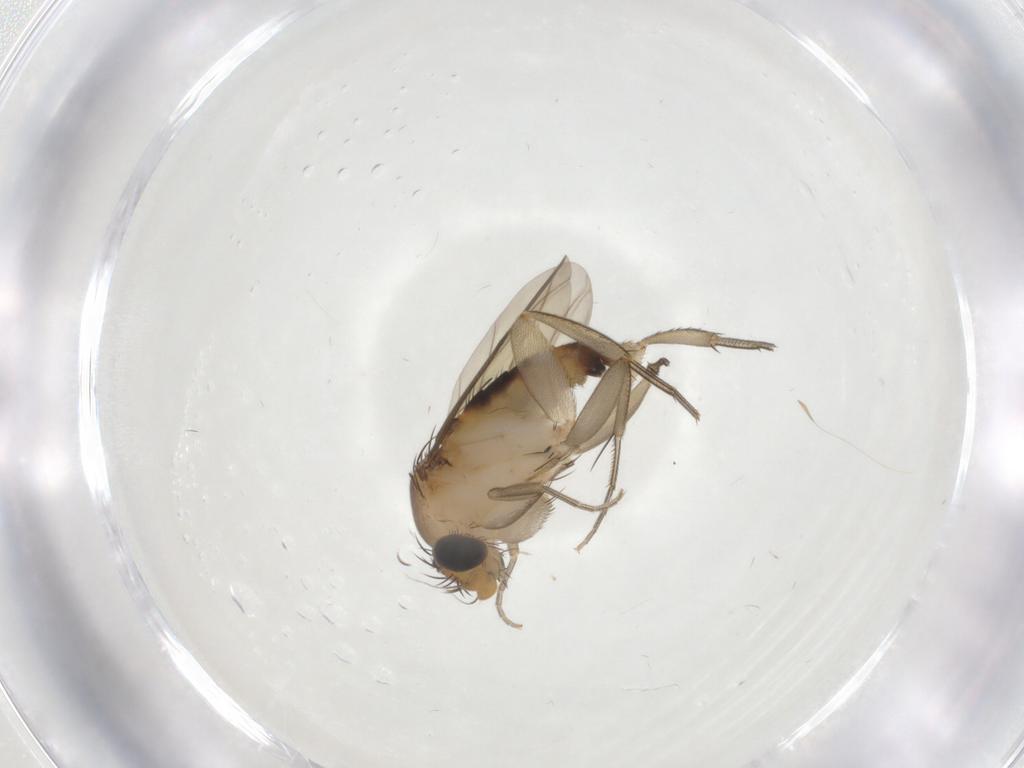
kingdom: Animalia
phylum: Arthropoda
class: Insecta
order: Diptera
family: Phoridae
